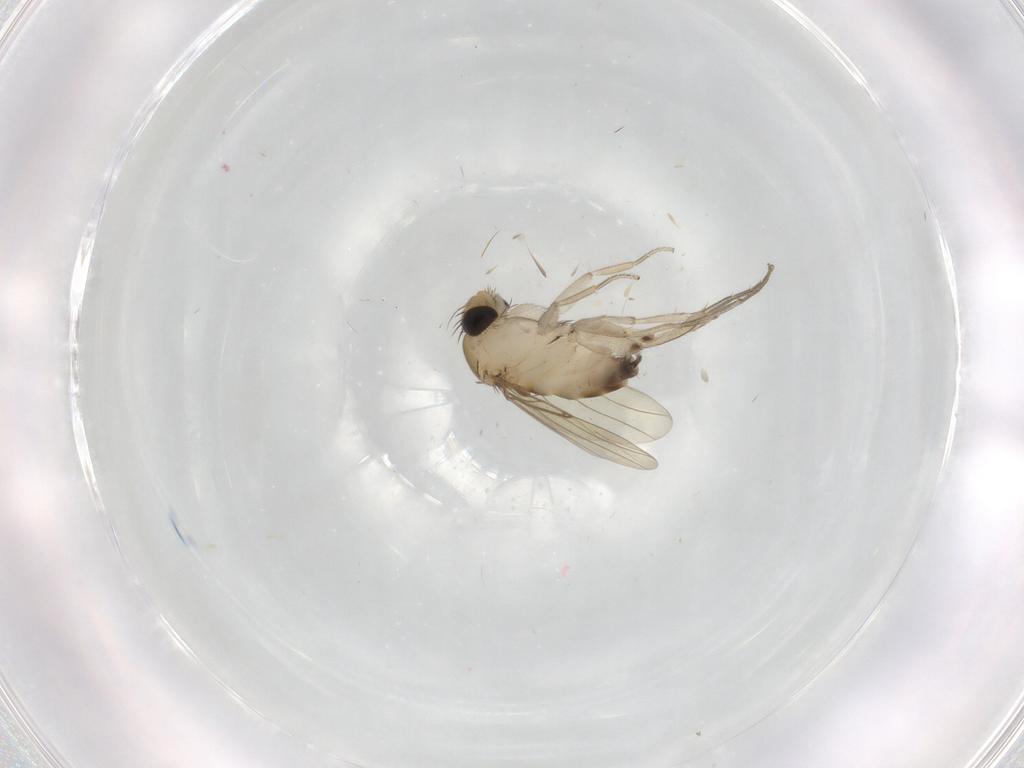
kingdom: Animalia
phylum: Arthropoda
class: Insecta
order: Diptera
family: Phoridae
